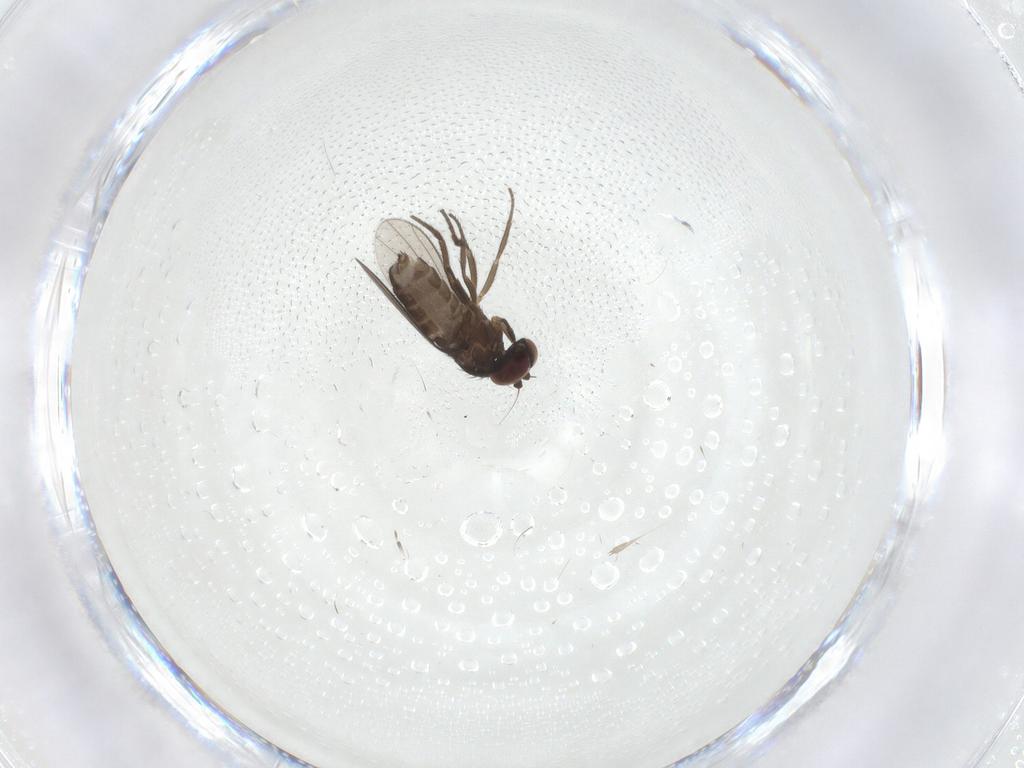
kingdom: Animalia
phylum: Arthropoda
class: Insecta
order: Diptera
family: Dolichopodidae
